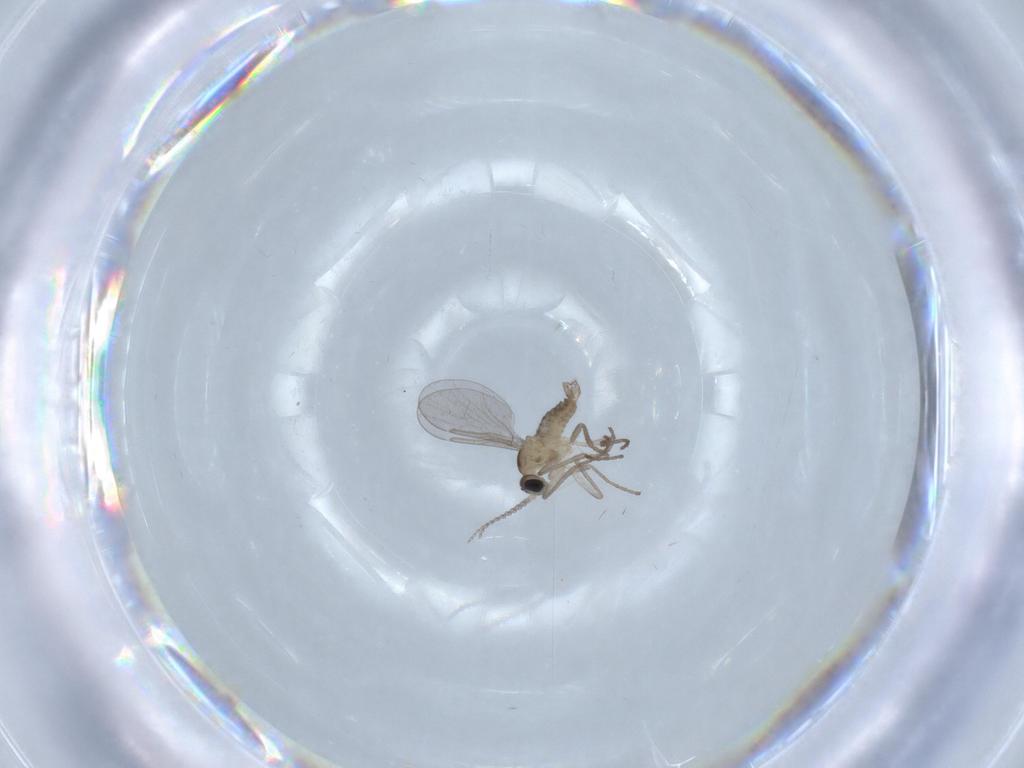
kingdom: Animalia
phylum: Arthropoda
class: Insecta
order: Diptera
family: Cecidomyiidae
